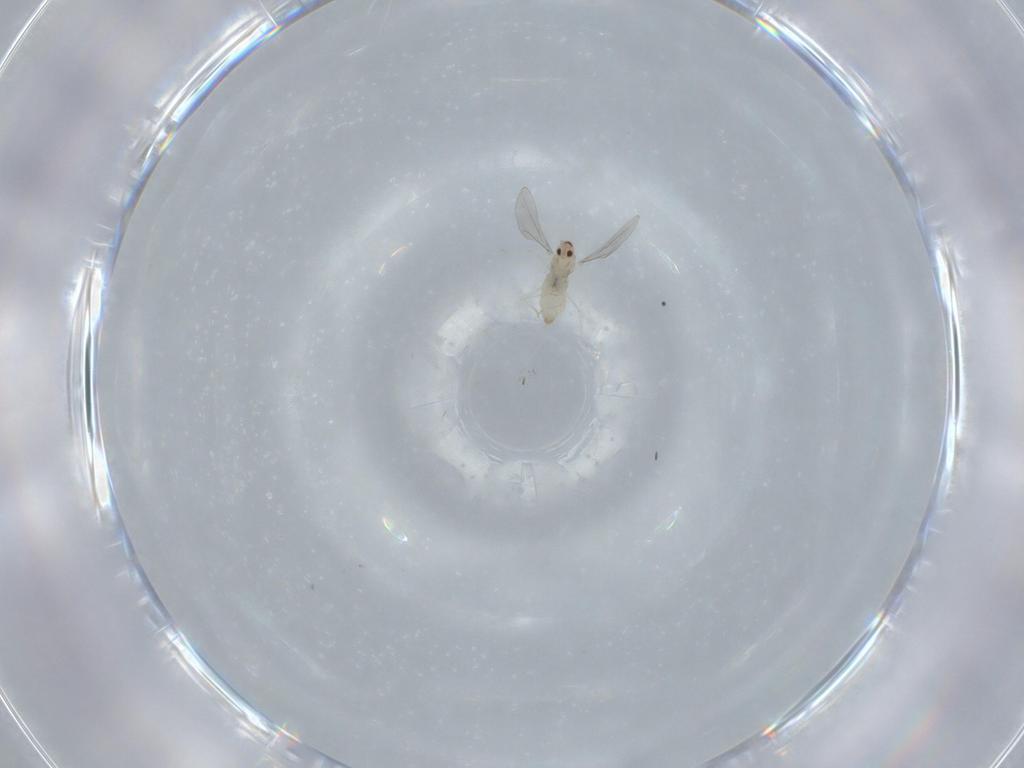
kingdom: Animalia
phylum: Arthropoda
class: Insecta
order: Diptera
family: Cecidomyiidae
